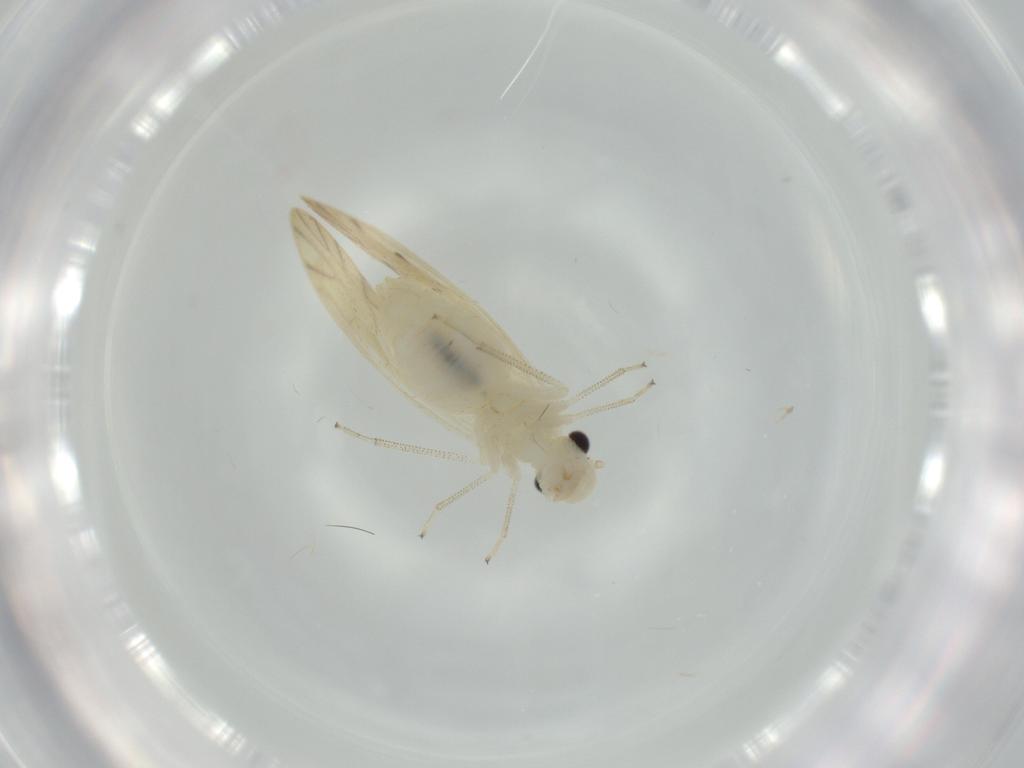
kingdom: Animalia
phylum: Arthropoda
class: Insecta
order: Psocodea
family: Caeciliusidae
